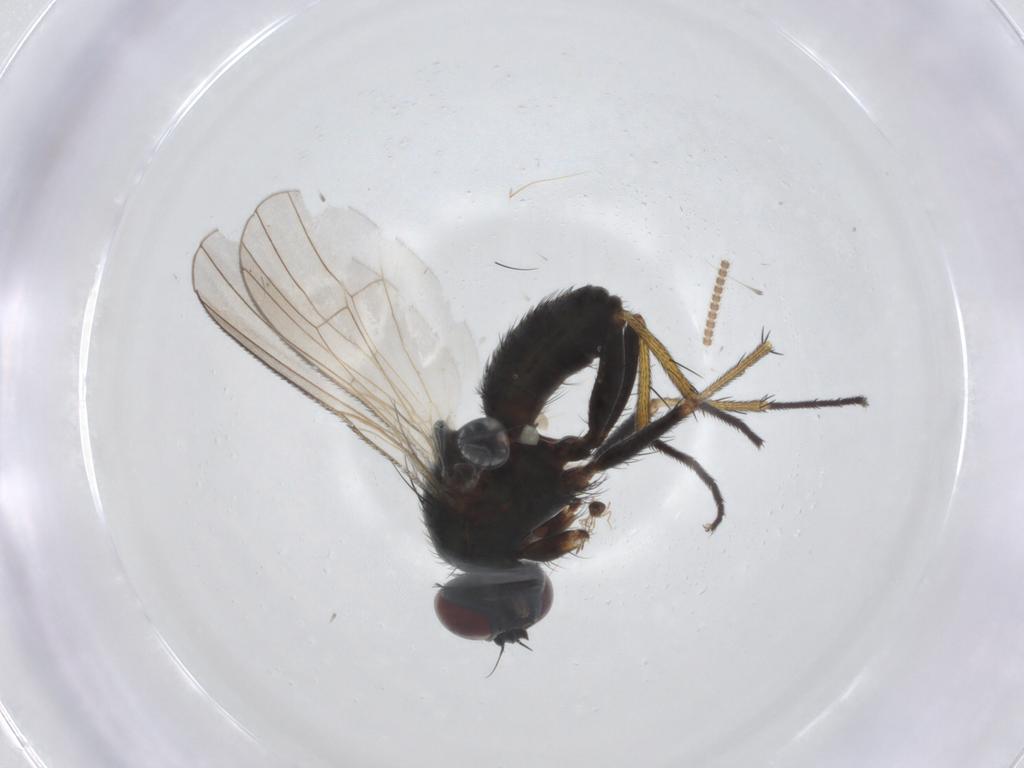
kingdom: Animalia
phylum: Arthropoda
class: Insecta
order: Diptera
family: Muscidae
